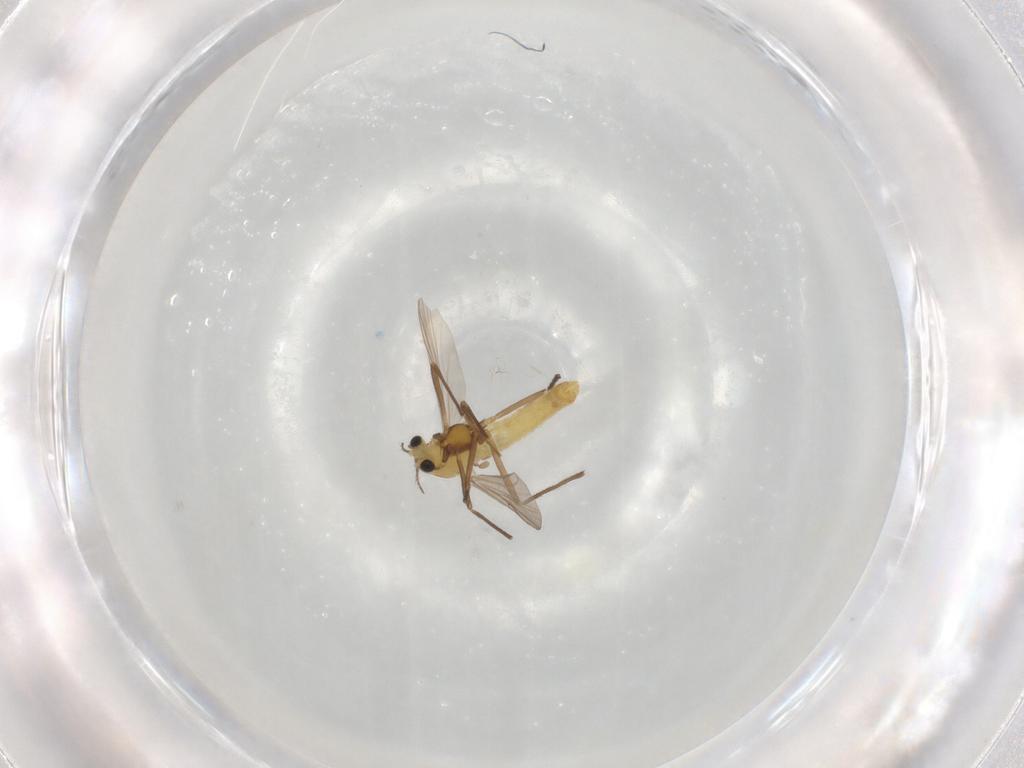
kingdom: Animalia
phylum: Arthropoda
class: Insecta
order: Diptera
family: Chironomidae
